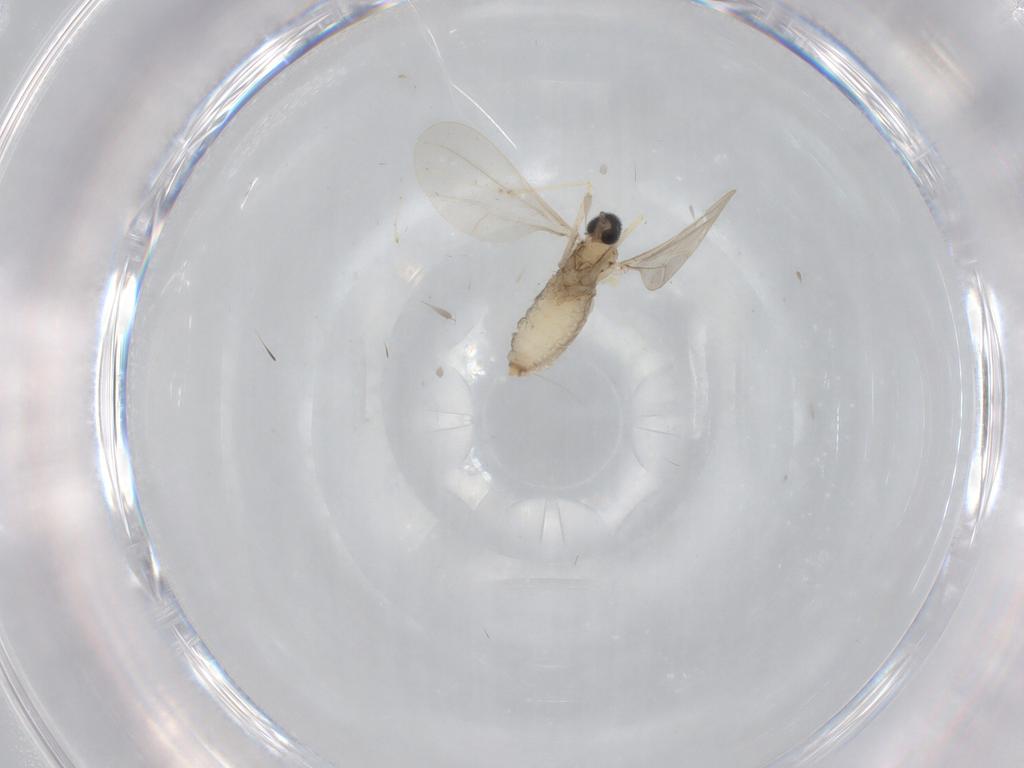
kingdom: Animalia
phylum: Arthropoda
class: Insecta
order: Diptera
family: Cecidomyiidae
